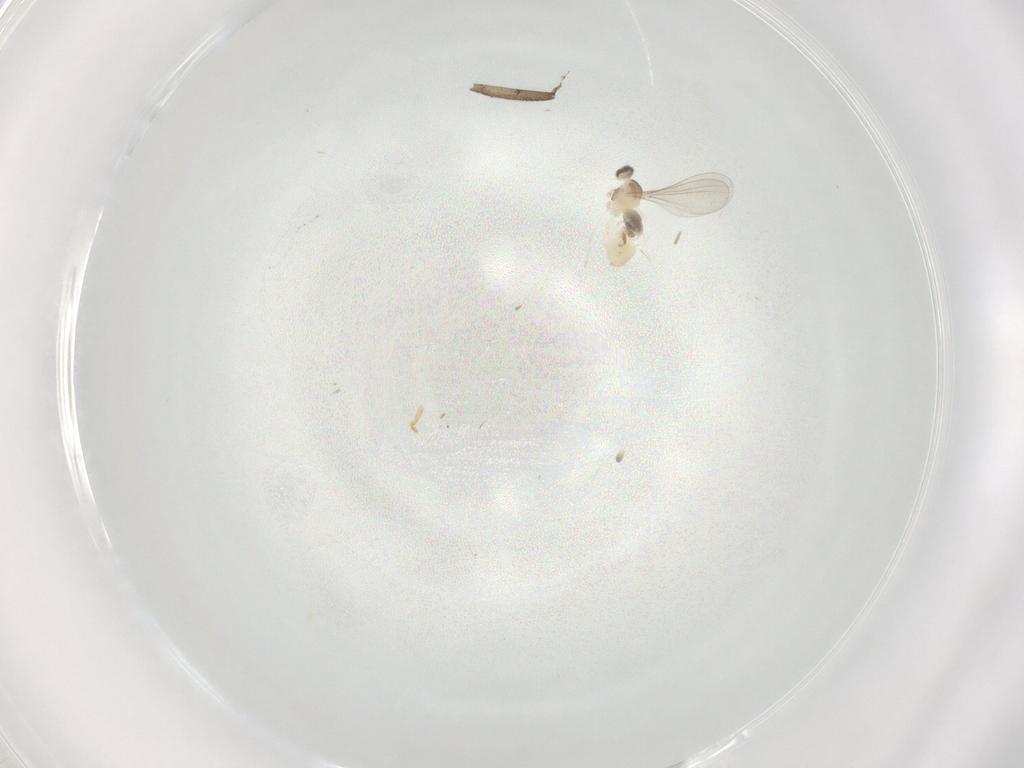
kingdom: Animalia
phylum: Arthropoda
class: Insecta
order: Diptera
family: Cecidomyiidae
